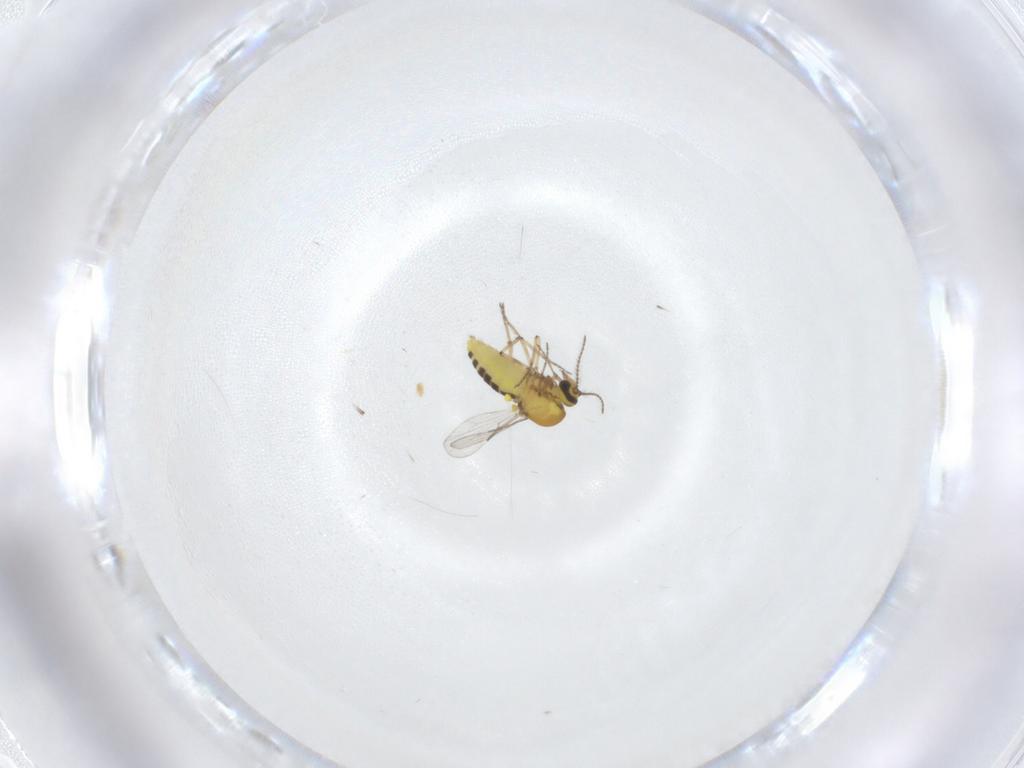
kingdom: Animalia
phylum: Arthropoda
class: Insecta
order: Diptera
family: Ceratopogonidae
